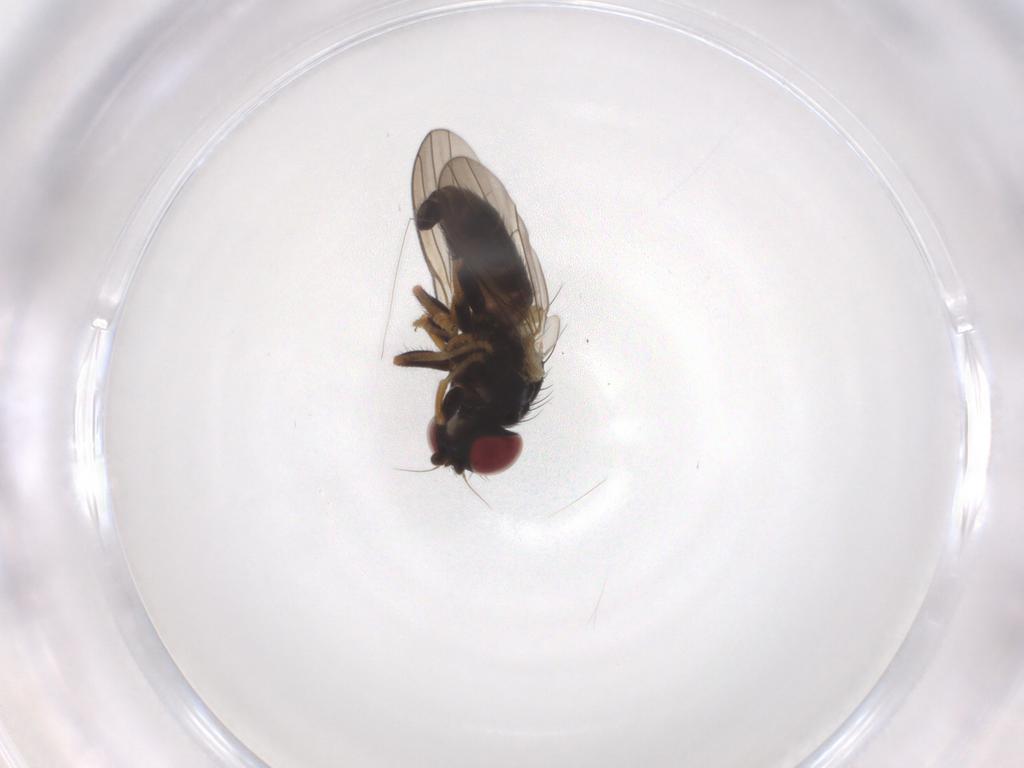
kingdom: Animalia
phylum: Arthropoda
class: Insecta
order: Diptera
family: Chamaemyiidae
